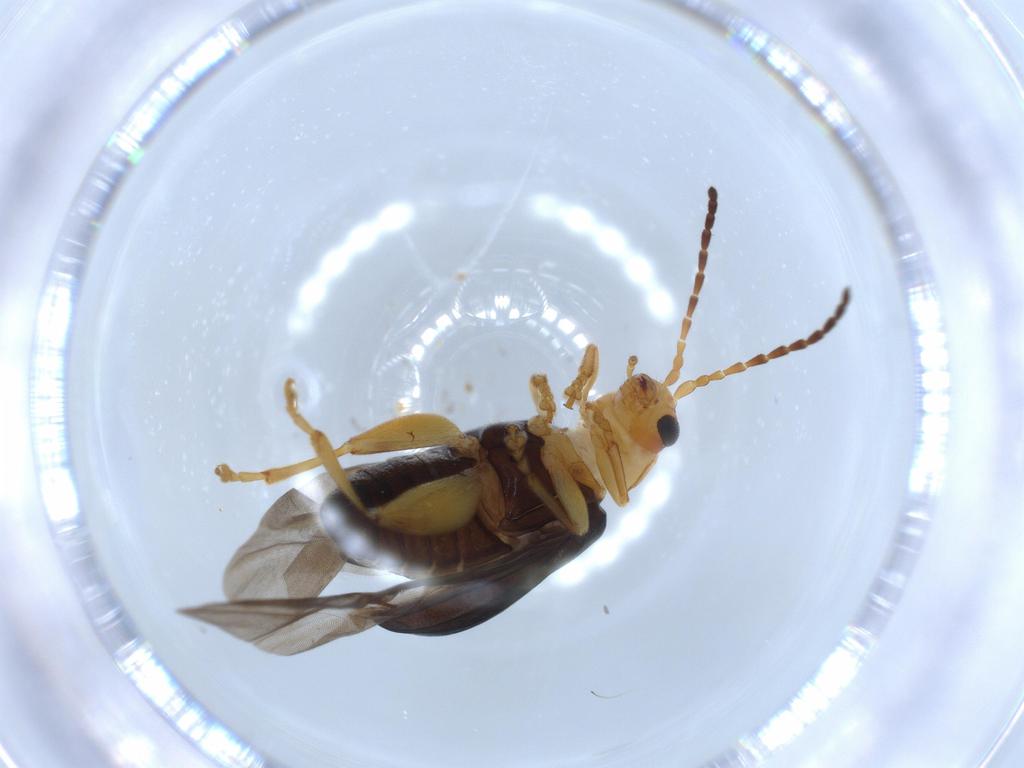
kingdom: Animalia
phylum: Arthropoda
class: Insecta
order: Coleoptera
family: Chrysomelidae
